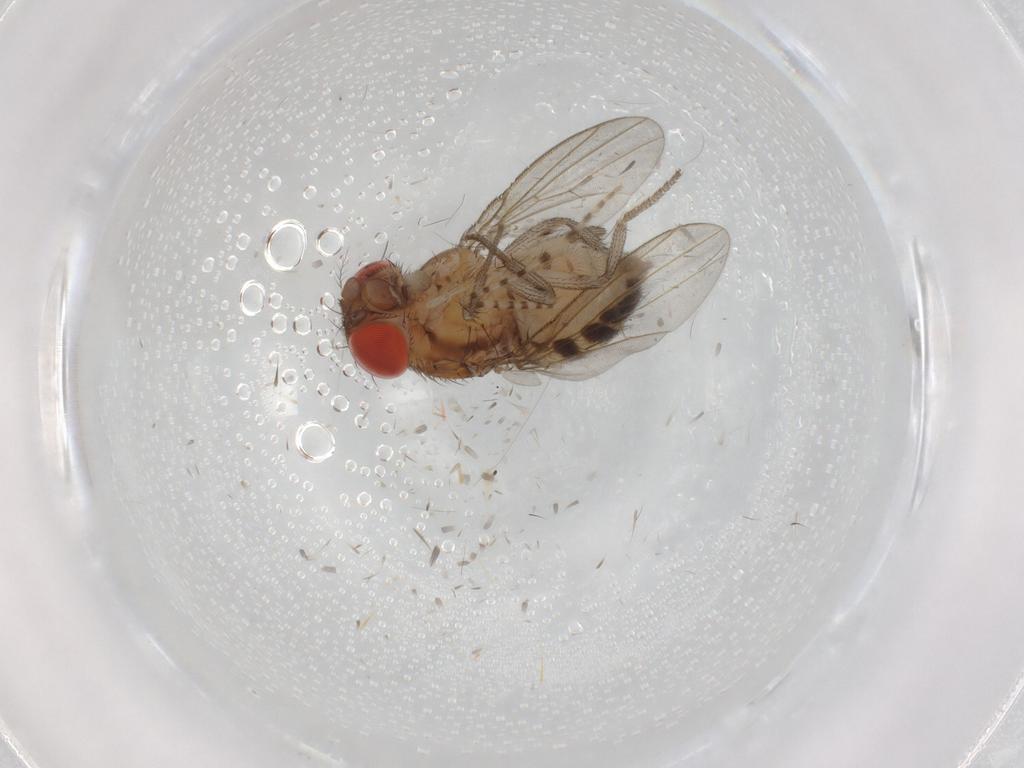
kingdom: Animalia
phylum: Arthropoda
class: Insecta
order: Diptera
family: Drosophilidae
